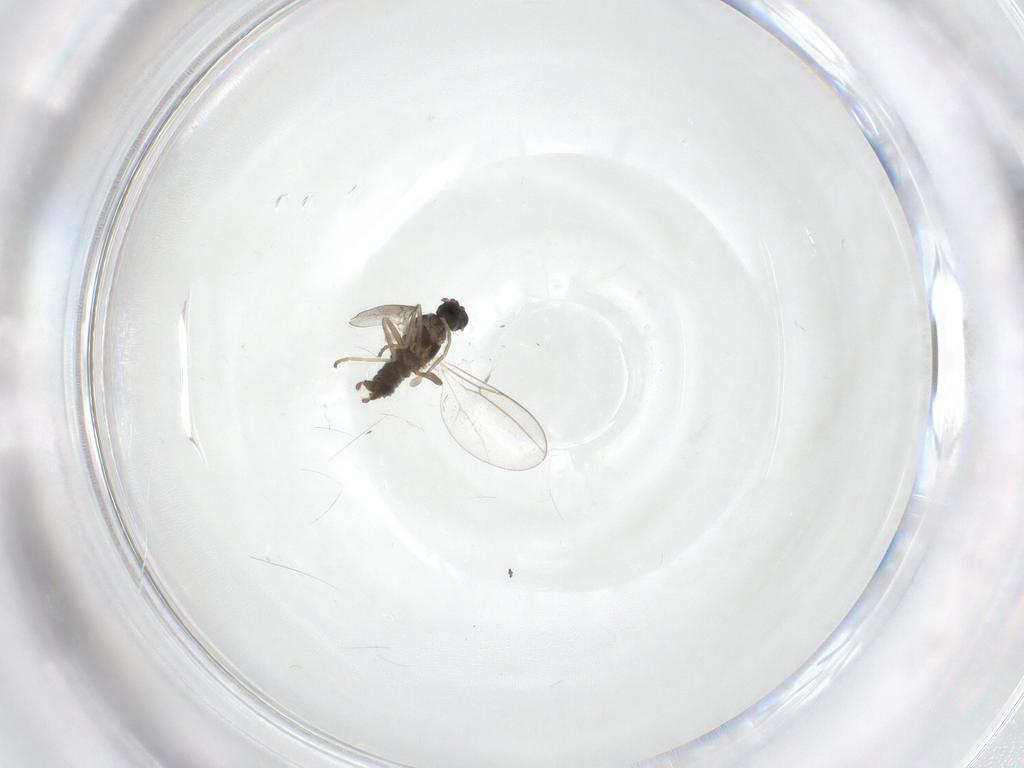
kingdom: Animalia
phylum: Arthropoda
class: Insecta
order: Diptera
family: Cecidomyiidae
